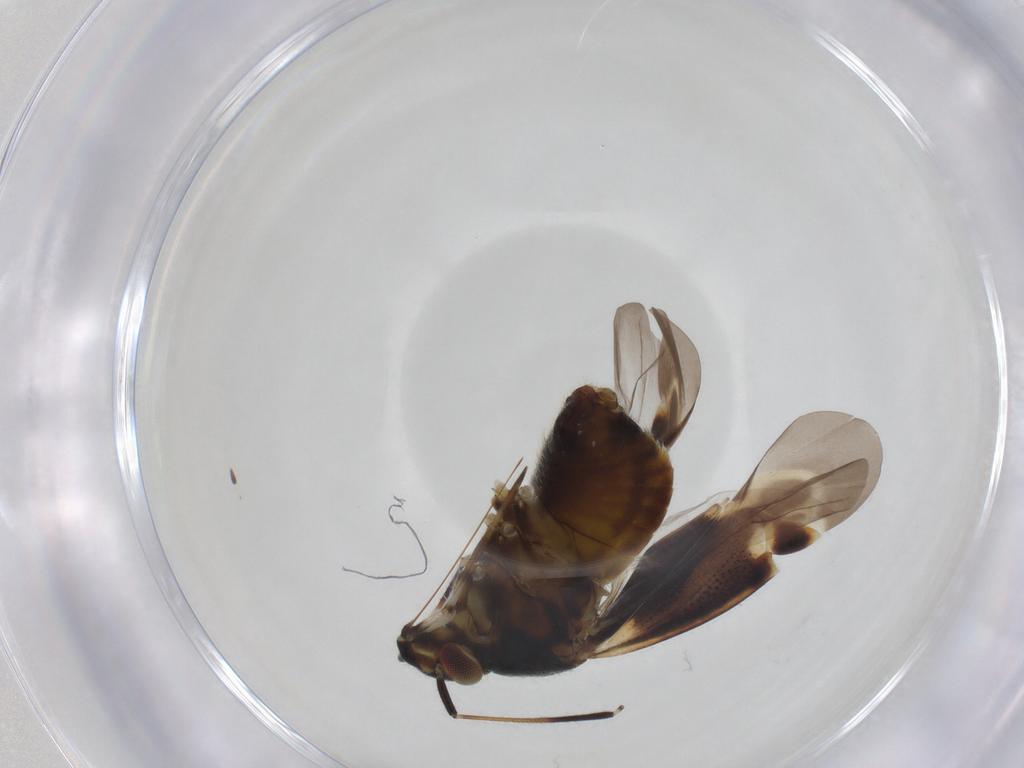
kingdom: Animalia
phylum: Arthropoda
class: Insecta
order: Hemiptera
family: Miridae
